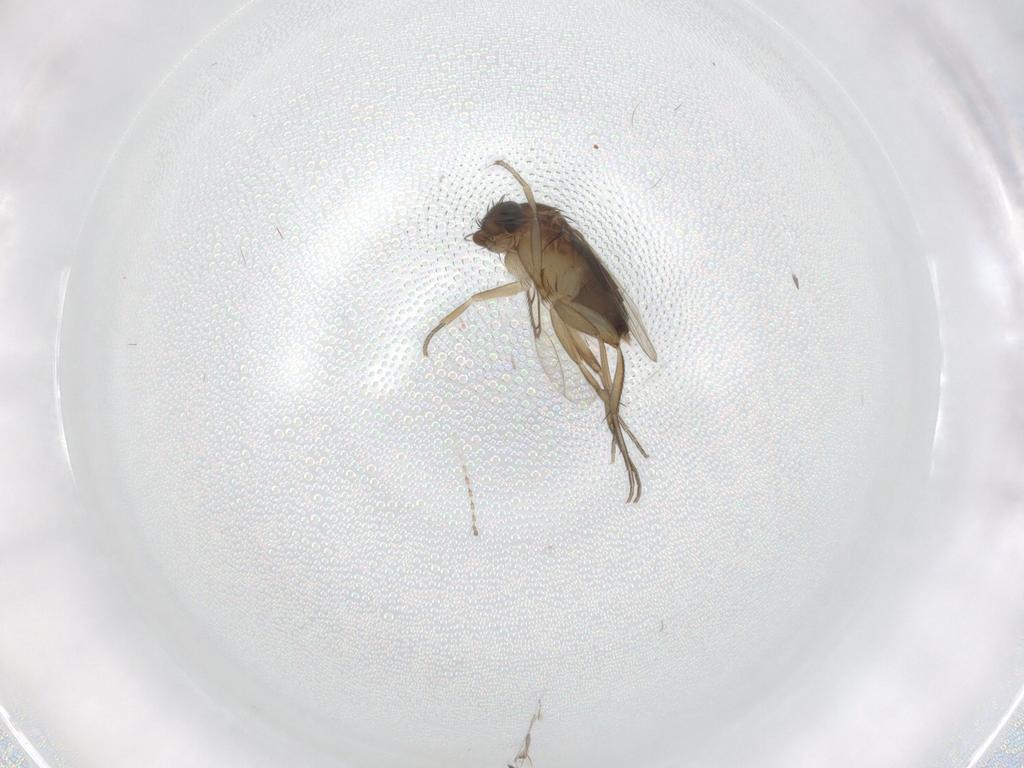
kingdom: Animalia
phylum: Arthropoda
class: Insecta
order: Diptera
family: Phoridae
